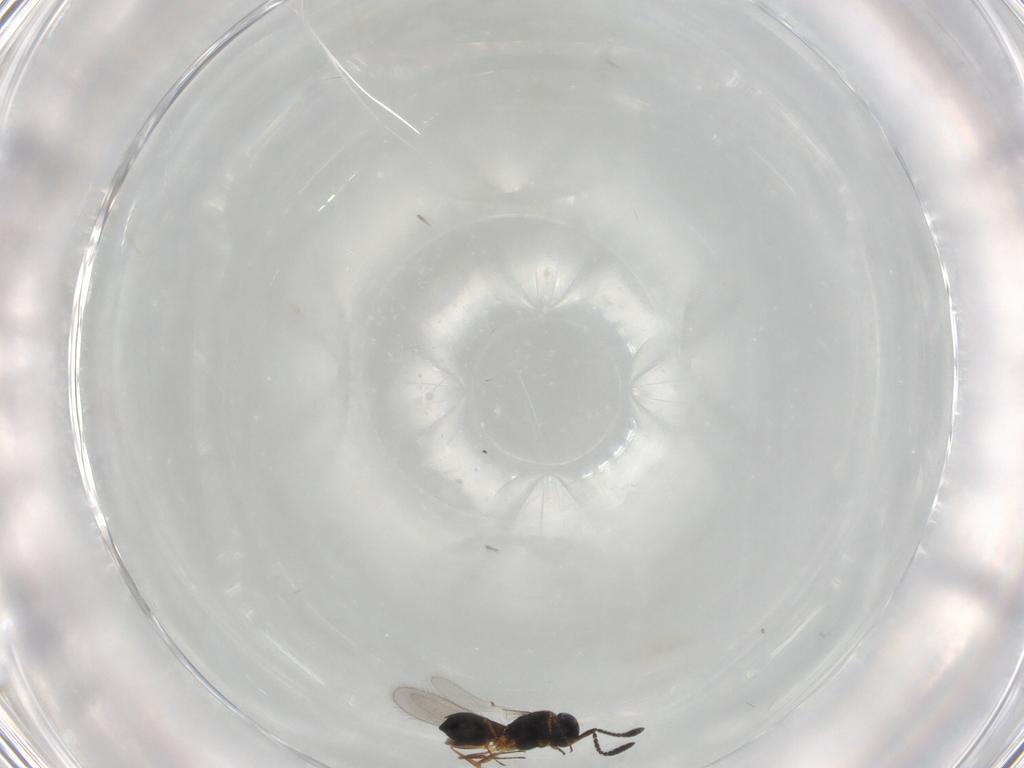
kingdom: Animalia
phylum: Arthropoda
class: Insecta
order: Hymenoptera
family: Scelionidae
